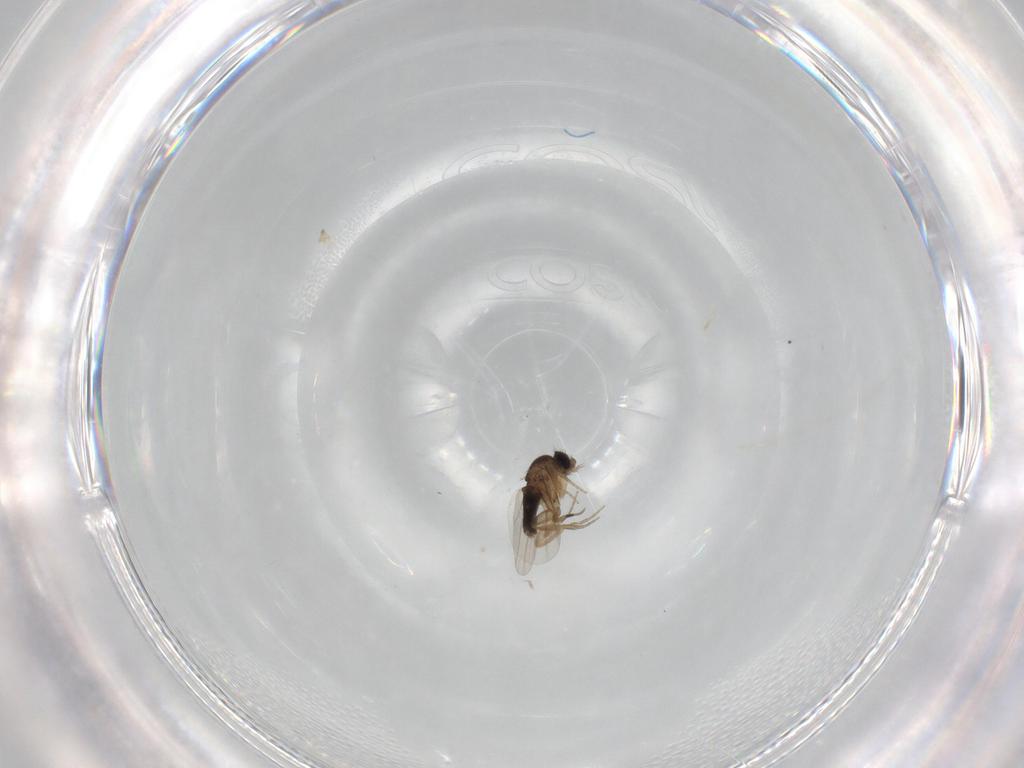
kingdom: Animalia
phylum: Arthropoda
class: Insecta
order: Diptera
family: Phoridae
